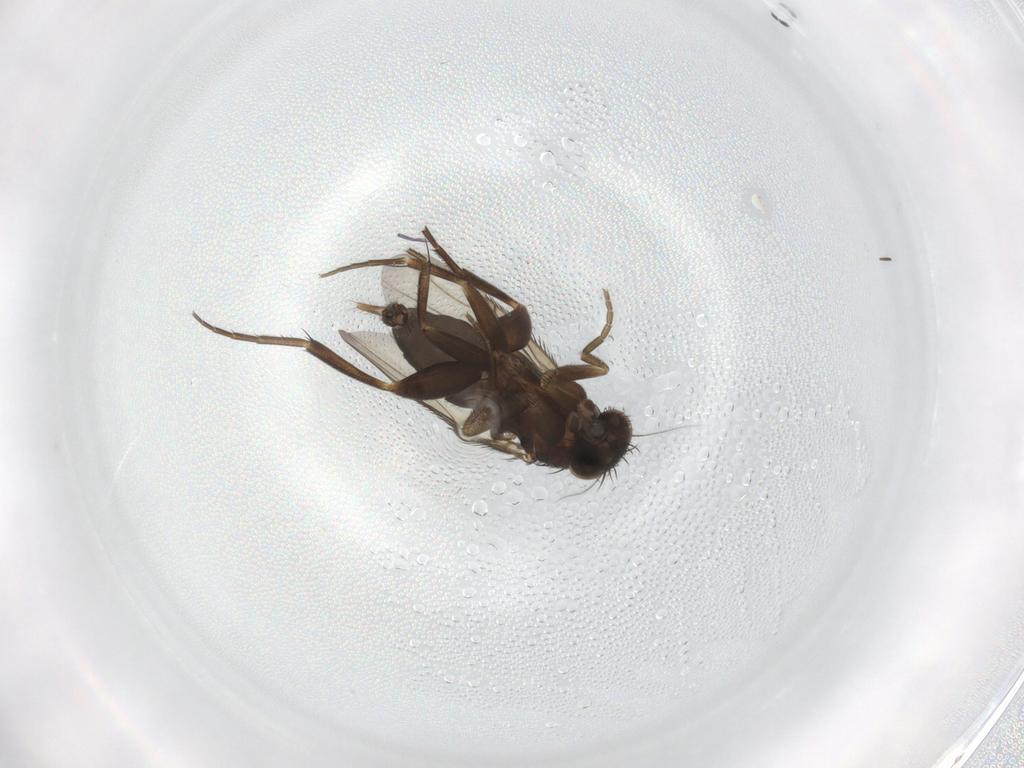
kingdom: Animalia
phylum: Arthropoda
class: Insecta
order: Diptera
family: Phoridae
